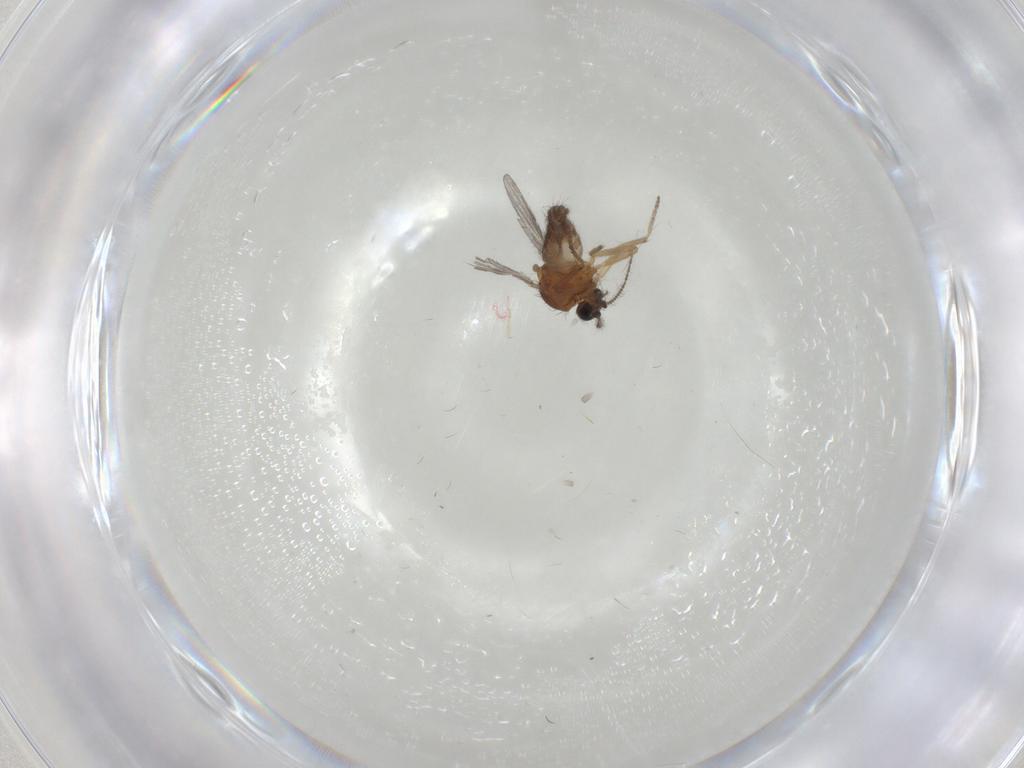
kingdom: Animalia
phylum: Arthropoda
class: Insecta
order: Diptera
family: Ceratopogonidae
